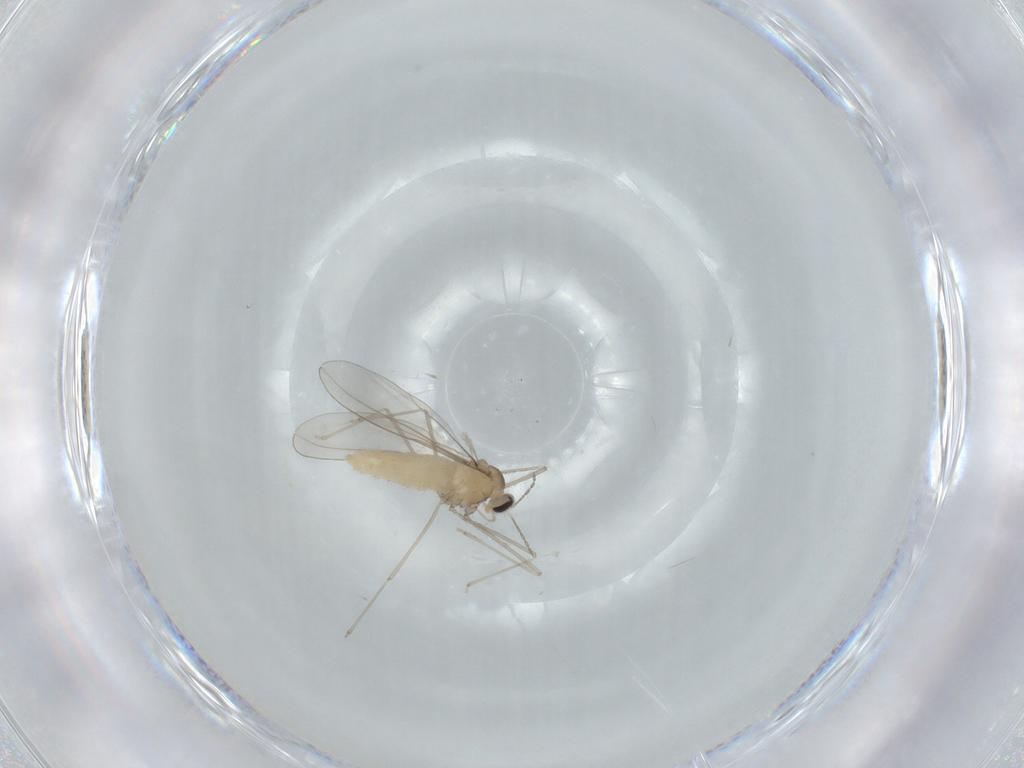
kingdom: Animalia
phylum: Arthropoda
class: Insecta
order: Diptera
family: Cecidomyiidae
